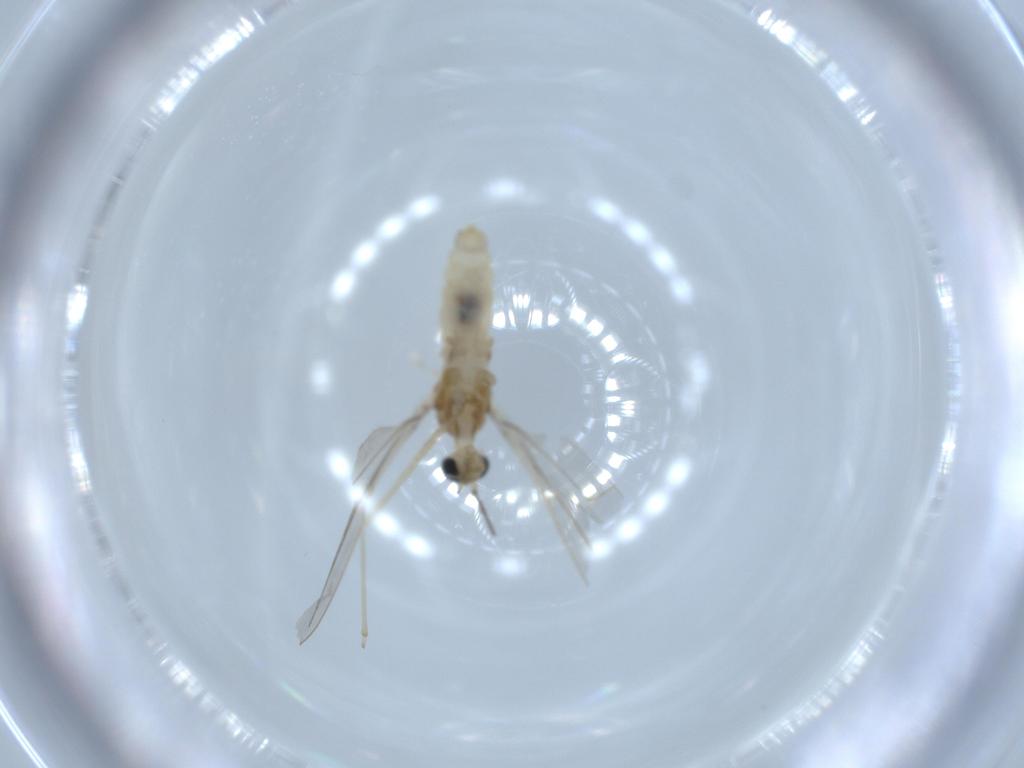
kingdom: Animalia
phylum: Arthropoda
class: Insecta
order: Diptera
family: Cecidomyiidae
